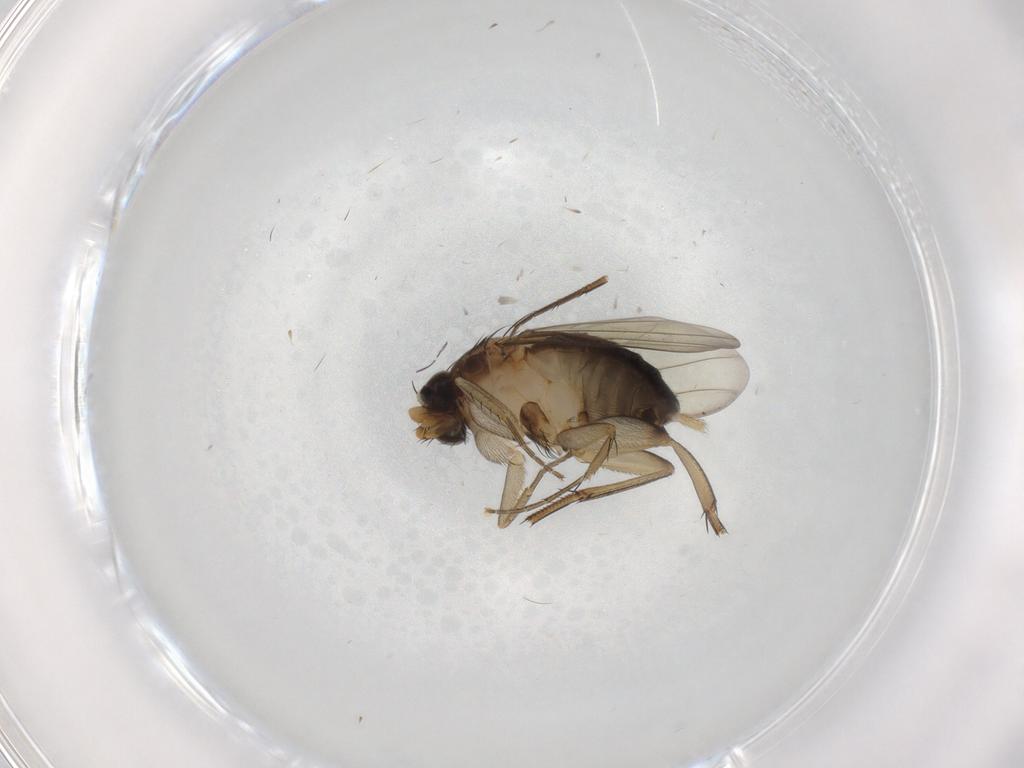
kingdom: Animalia
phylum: Arthropoda
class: Insecta
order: Diptera
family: Phoridae
